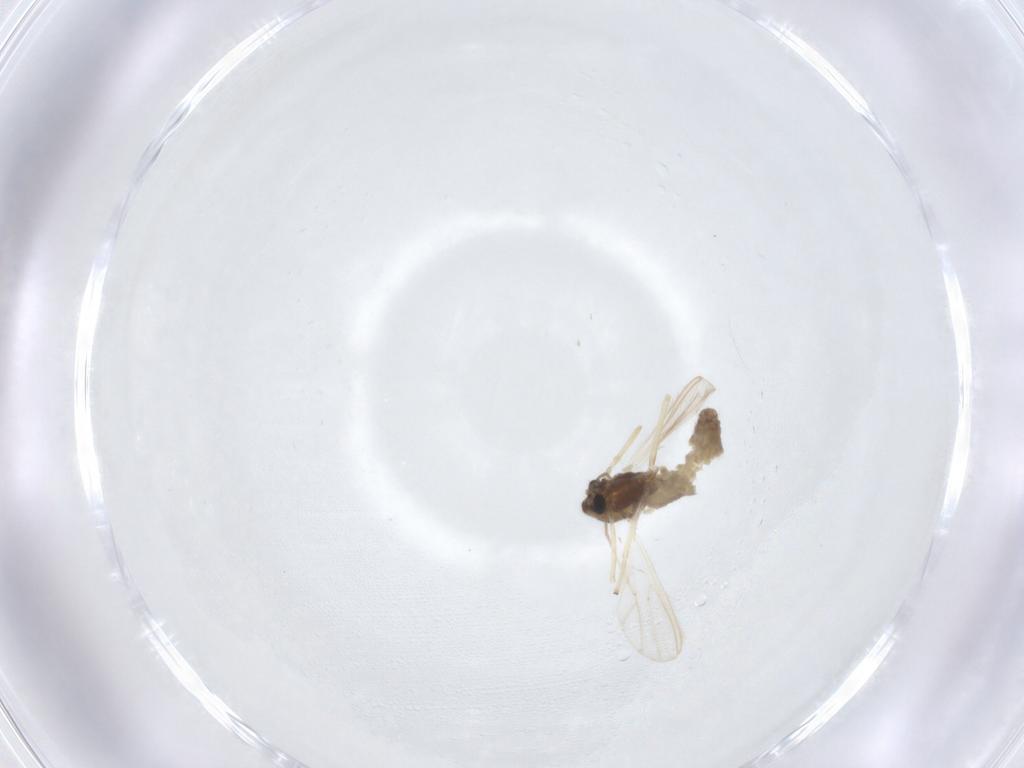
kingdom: Animalia
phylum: Arthropoda
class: Insecta
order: Diptera
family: Chironomidae
